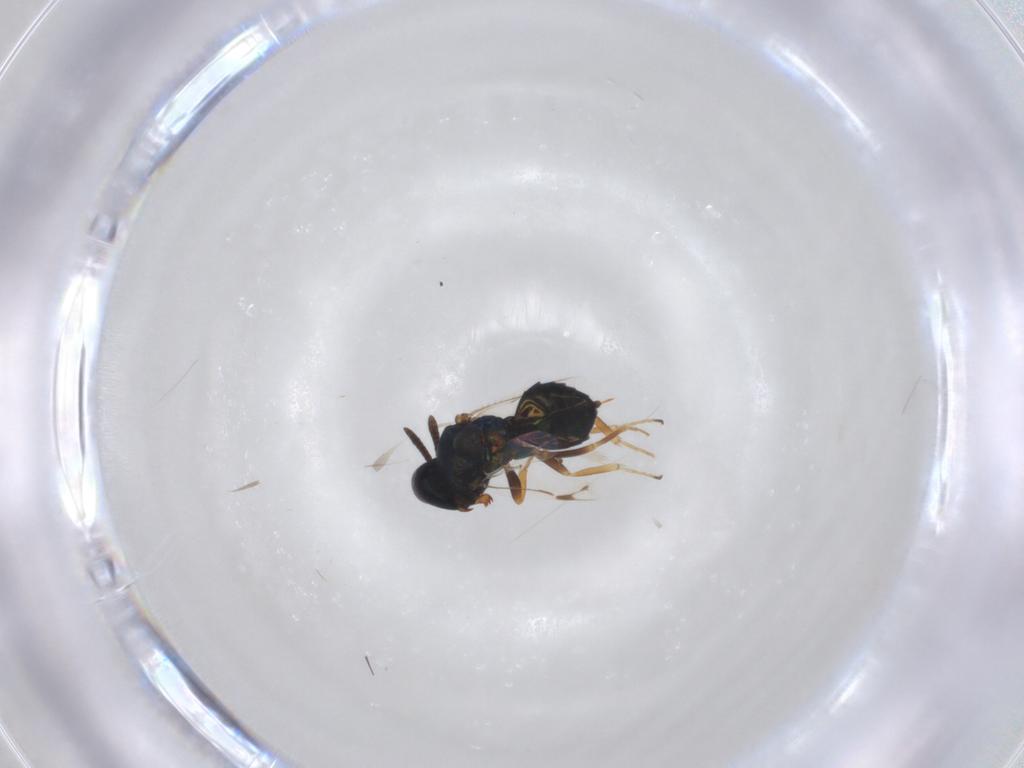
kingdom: Animalia
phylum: Arthropoda
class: Insecta
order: Hymenoptera
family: Pteromalidae
